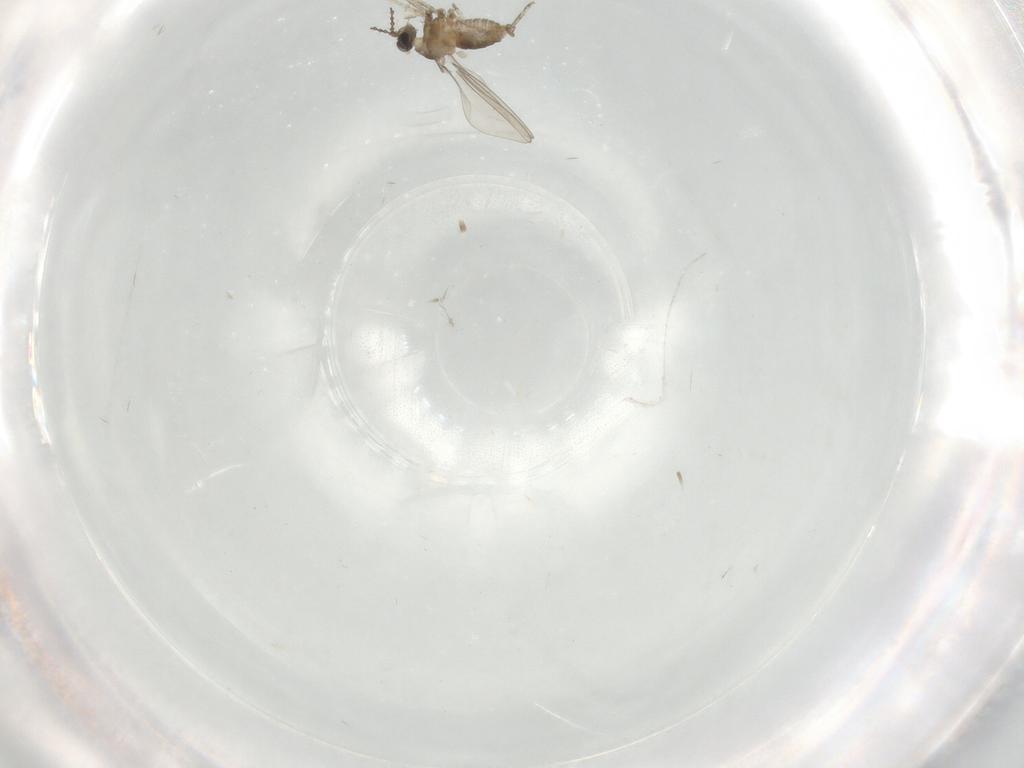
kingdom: Animalia
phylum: Arthropoda
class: Insecta
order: Diptera
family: Cecidomyiidae
